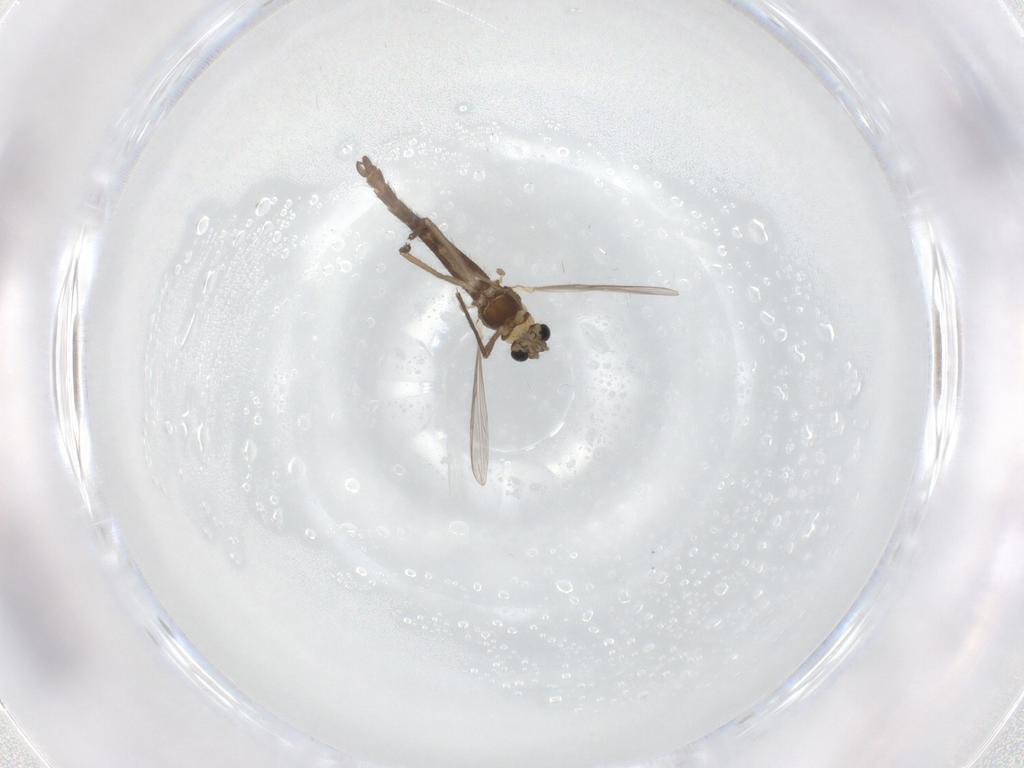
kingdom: Animalia
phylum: Arthropoda
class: Insecta
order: Diptera
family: Chironomidae
